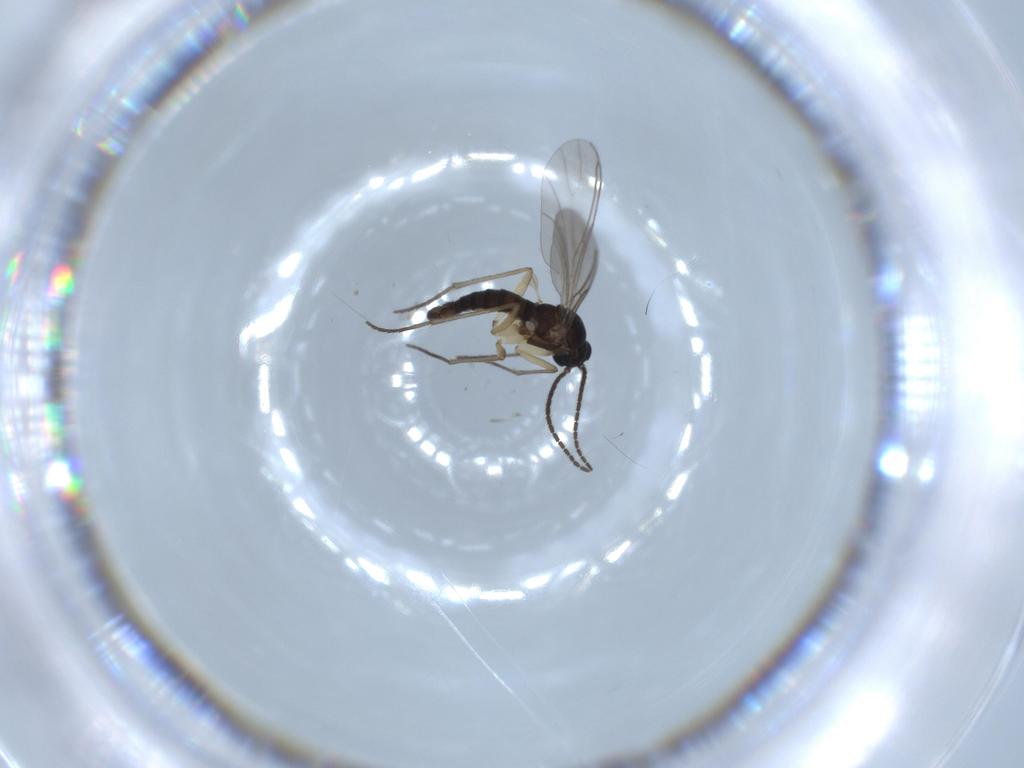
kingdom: Animalia
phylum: Arthropoda
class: Insecta
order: Diptera
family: Sciaridae
